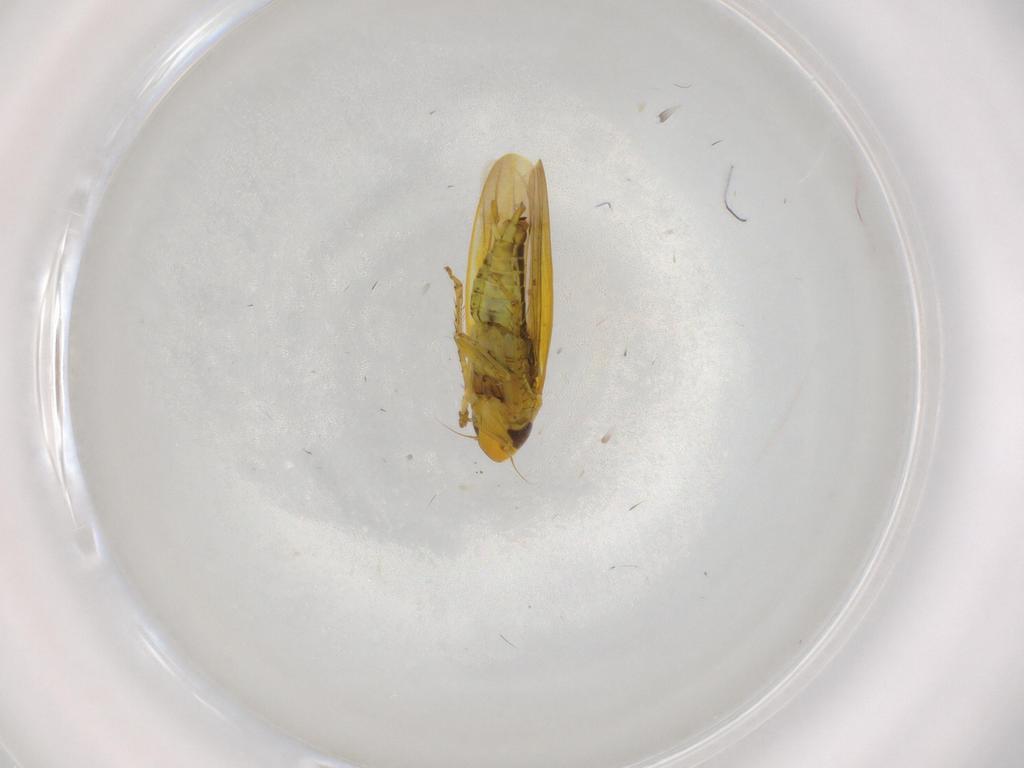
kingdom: Animalia
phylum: Arthropoda
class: Insecta
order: Hemiptera
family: Cicadellidae
